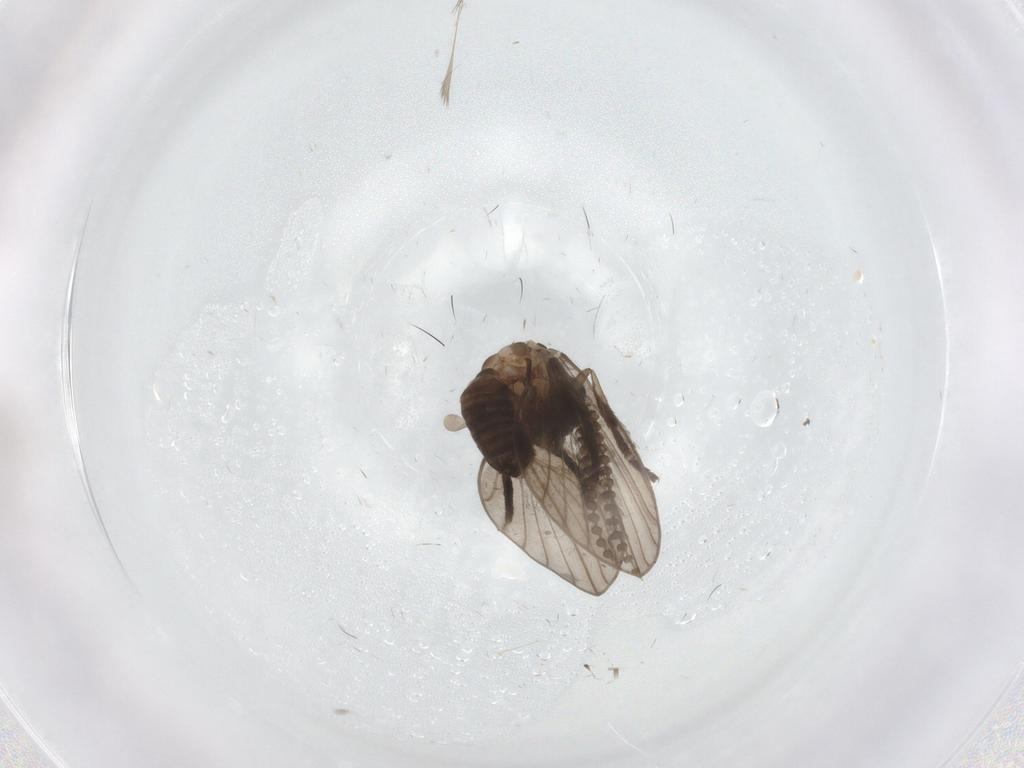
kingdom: Animalia
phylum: Arthropoda
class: Insecta
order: Diptera
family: Psychodidae
